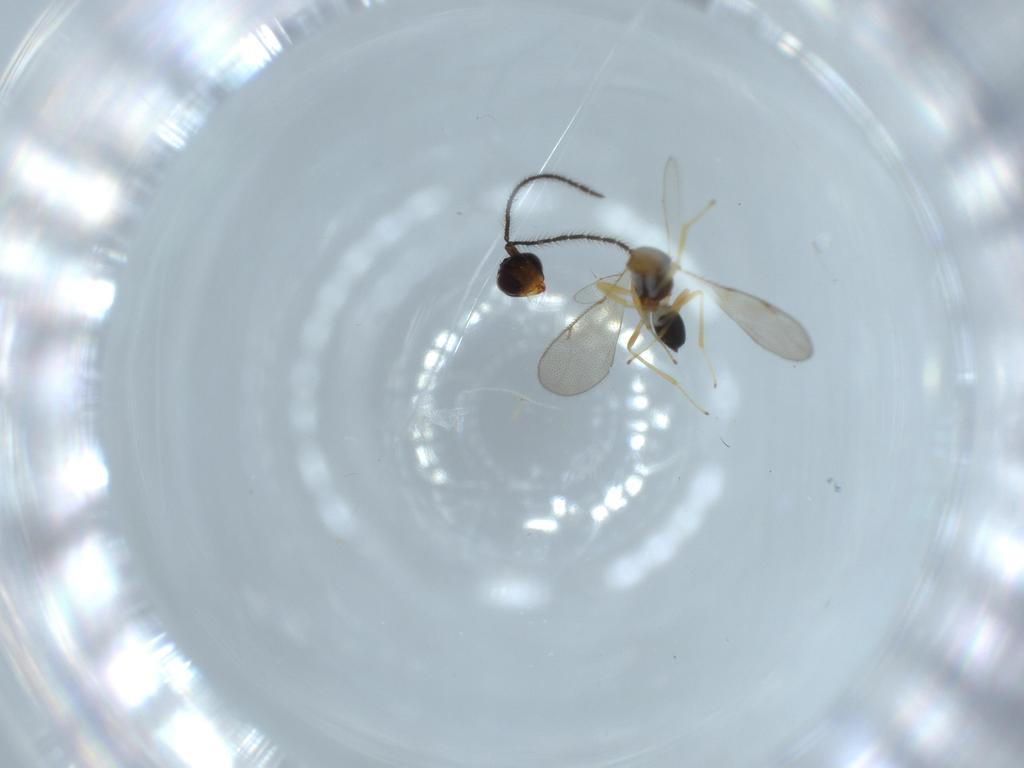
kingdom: Animalia
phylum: Arthropoda
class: Insecta
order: Hymenoptera
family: Diparidae
